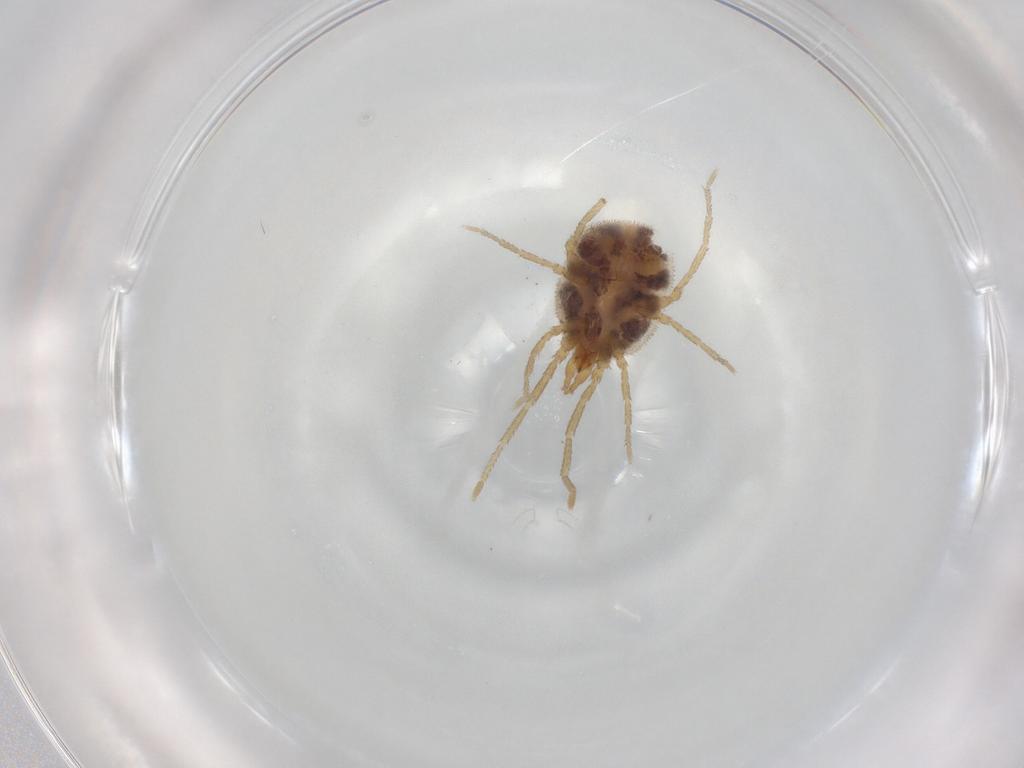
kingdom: Animalia
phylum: Arthropoda
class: Arachnida
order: Trombidiformes
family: Erythraeidae
